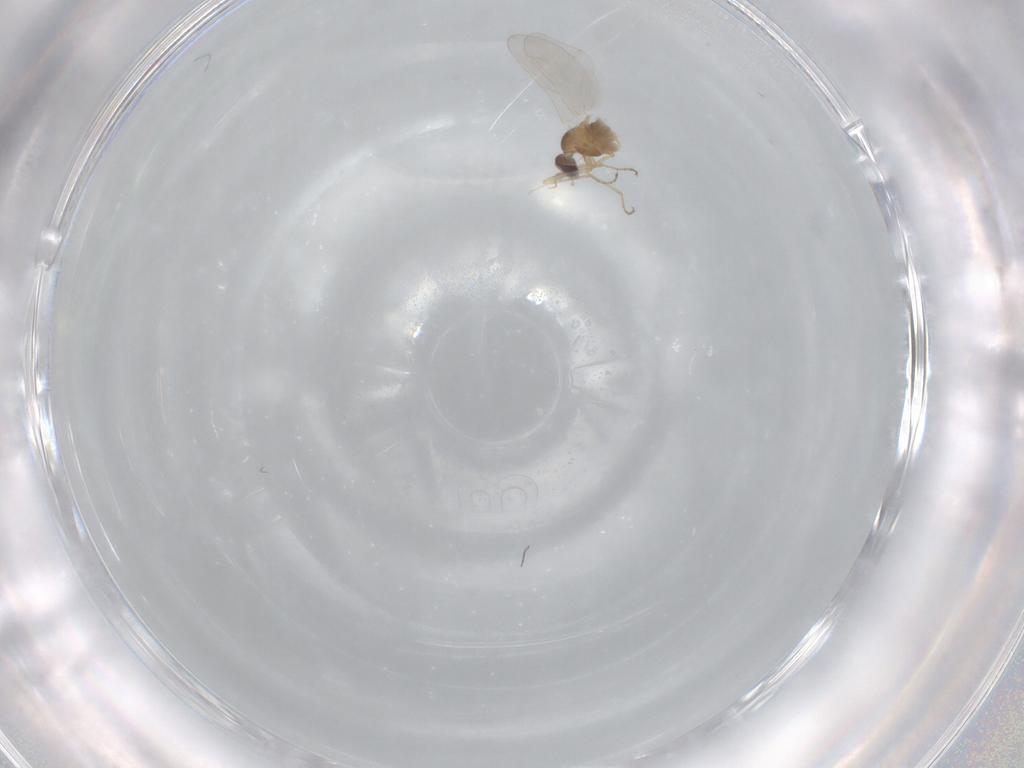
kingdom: Animalia
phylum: Arthropoda
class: Insecta
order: Diptera
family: Cecidomyiidae
